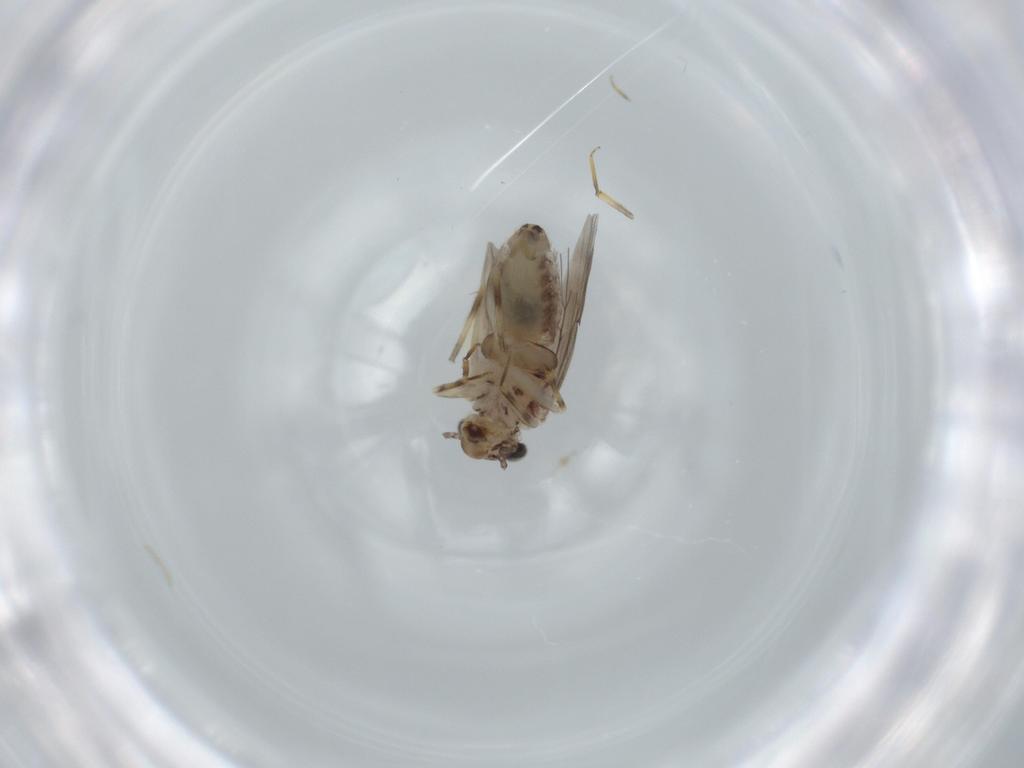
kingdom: Animalia
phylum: Arthropoda
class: Insecta
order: Psocodea
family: Lepidopsocidae
